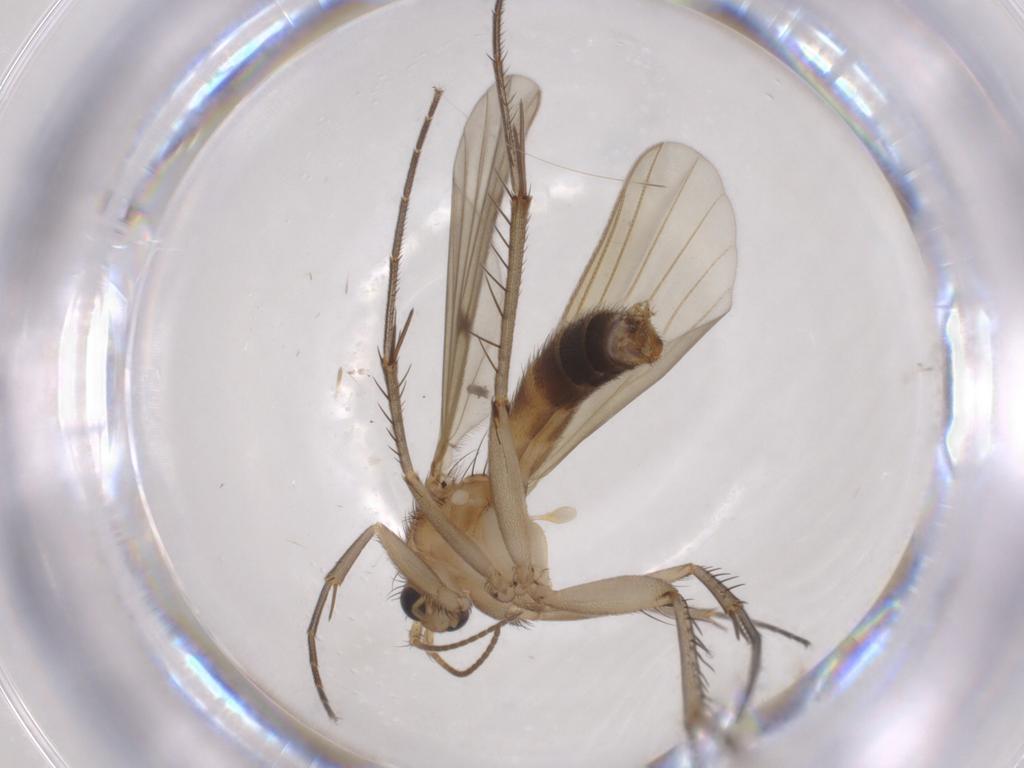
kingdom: Animalia
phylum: Arthropoda
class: Insecta
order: Diptera
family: Mycetophilidae
